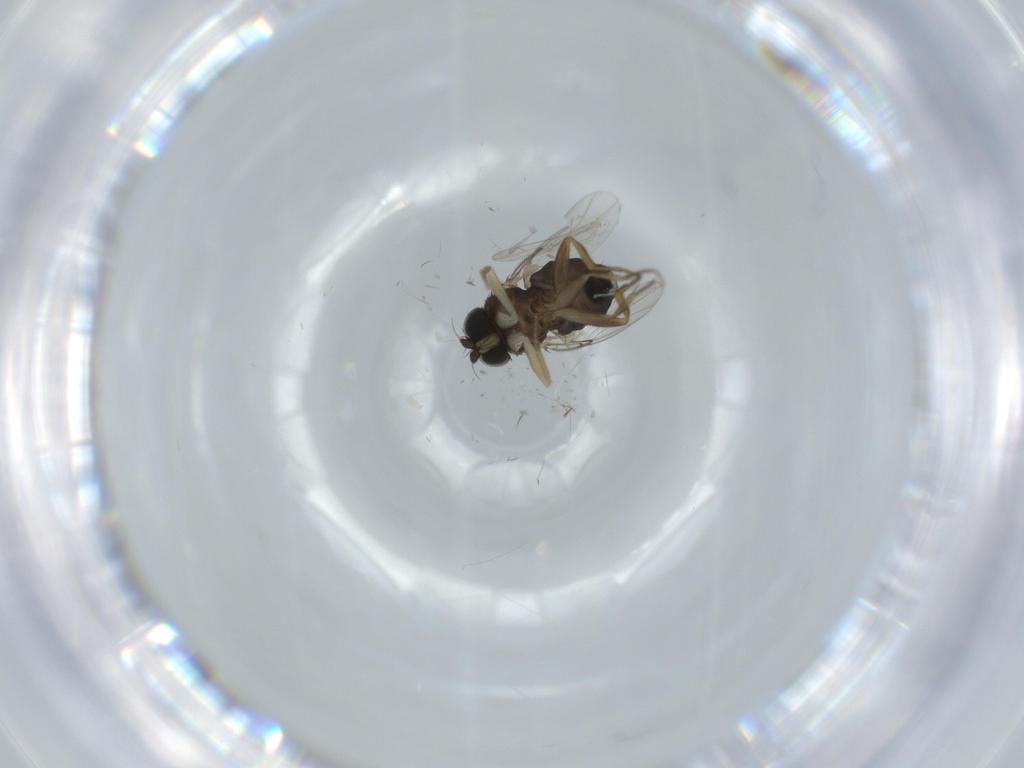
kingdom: Animalia
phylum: Arthropoda
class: Insecta
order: Diptera
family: Chironomidae
